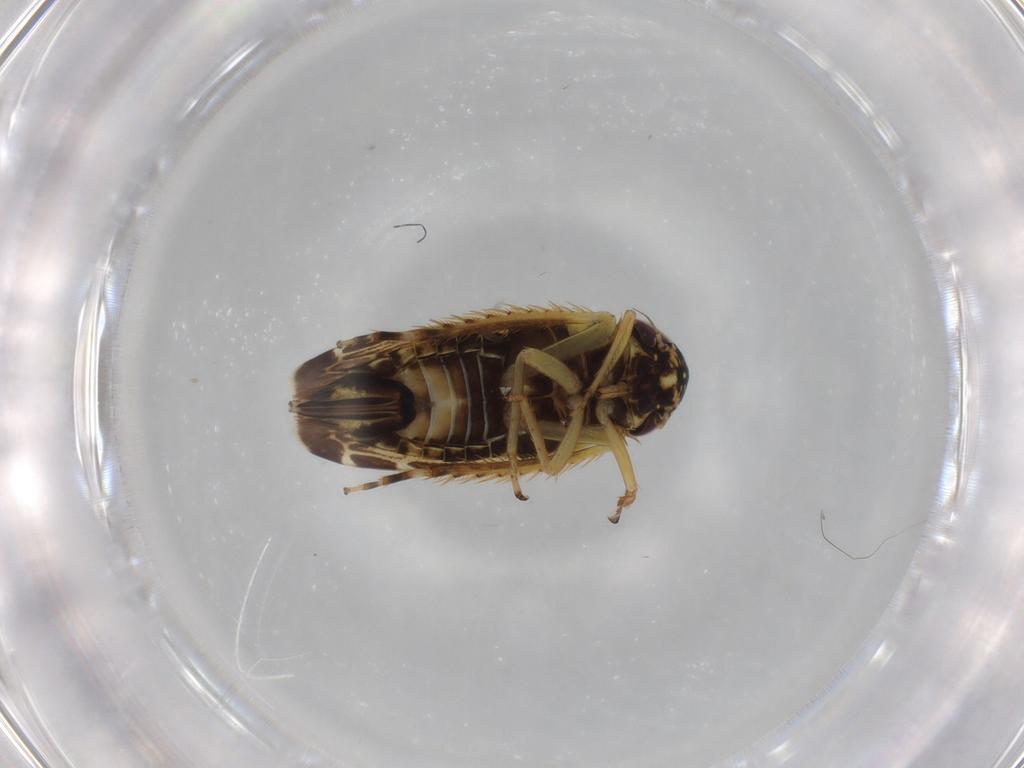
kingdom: Animalia
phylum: Arthropoda
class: Insecta
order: Hemiptera
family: Cicadellidae
